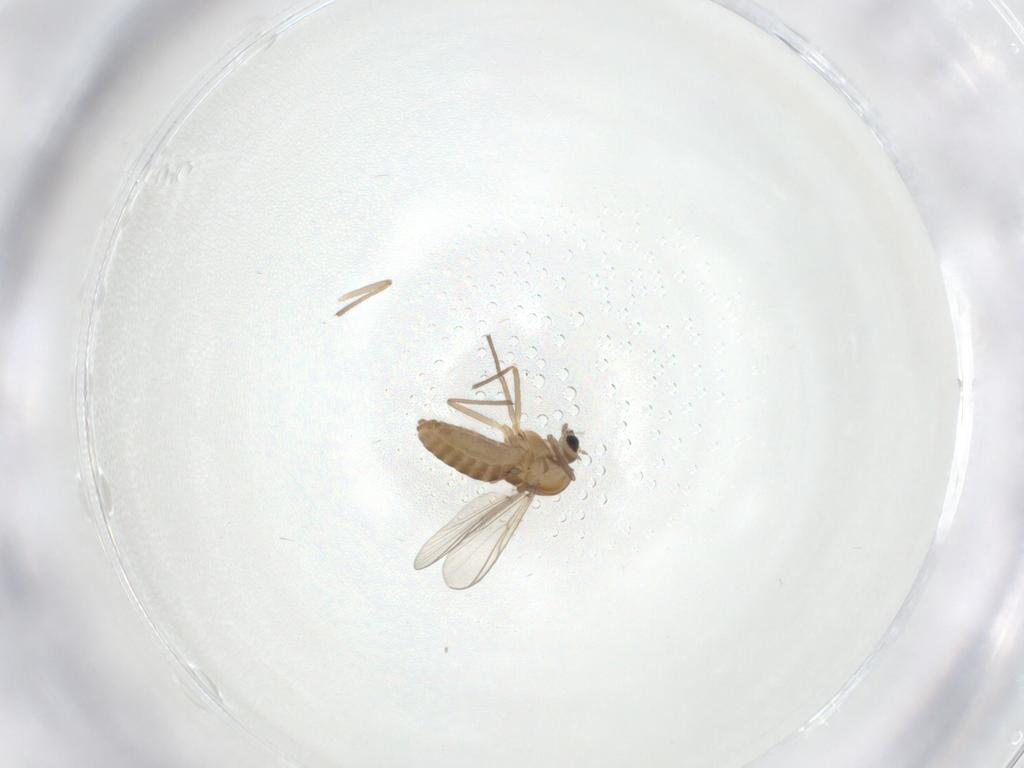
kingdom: Animalia
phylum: Arthropoda
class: Insecta
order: Diptera
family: Chironomidae
